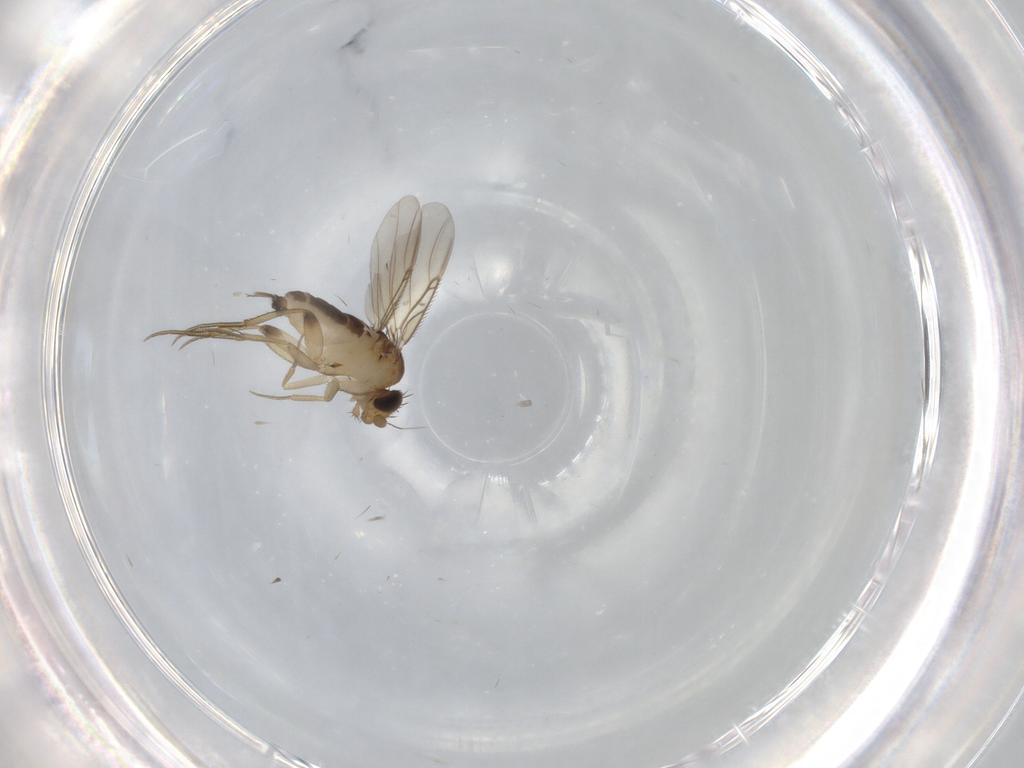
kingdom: Animalia
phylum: Arthropoda
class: Insecta
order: Diptera
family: Phoridae
